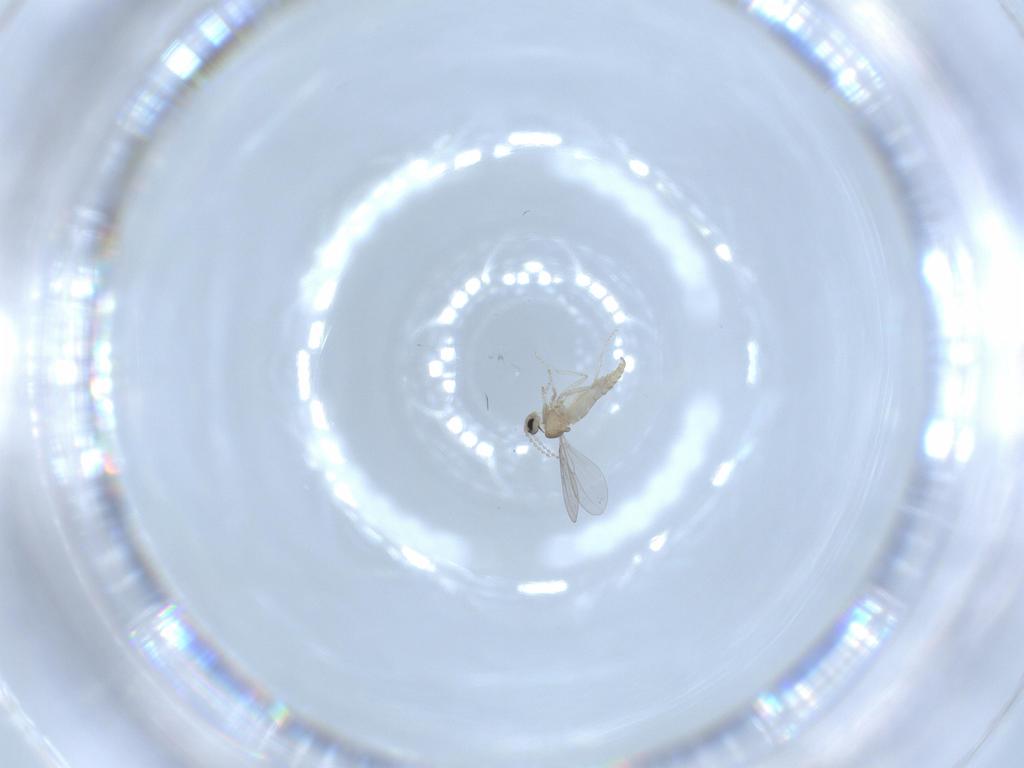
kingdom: Animalia
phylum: Arthropoda
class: Insecta
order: Diptera
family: Cecidomyiidae
